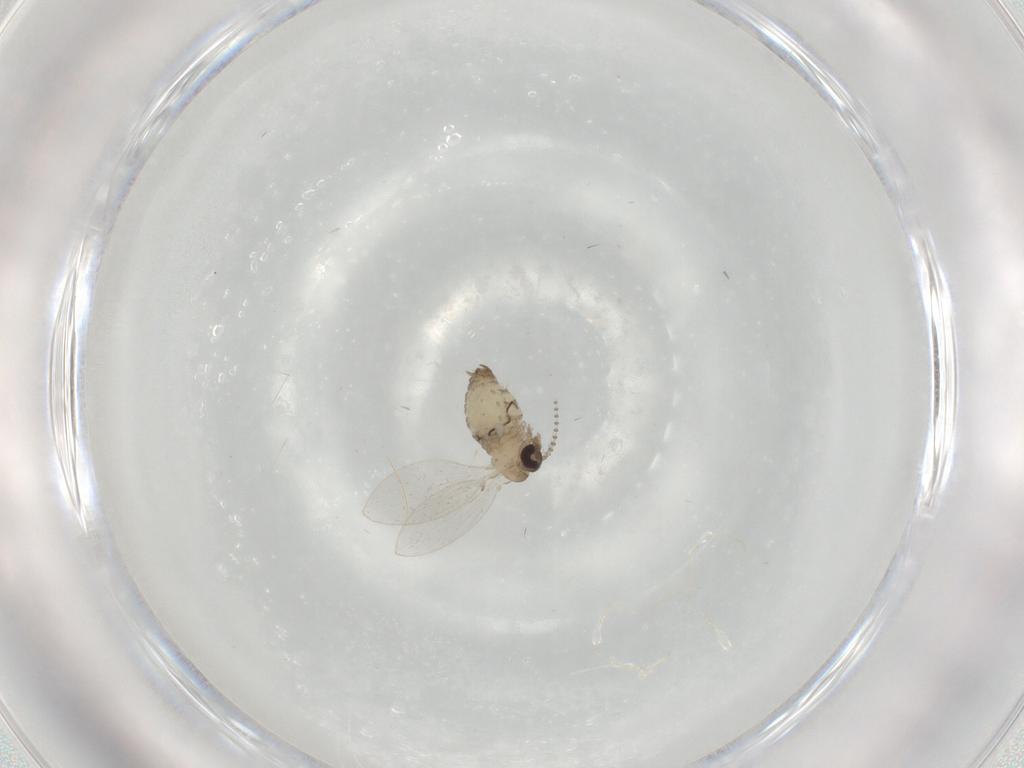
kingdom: Animalia
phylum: Arthropoda
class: Insecta
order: Diptera
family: Psychodidae
